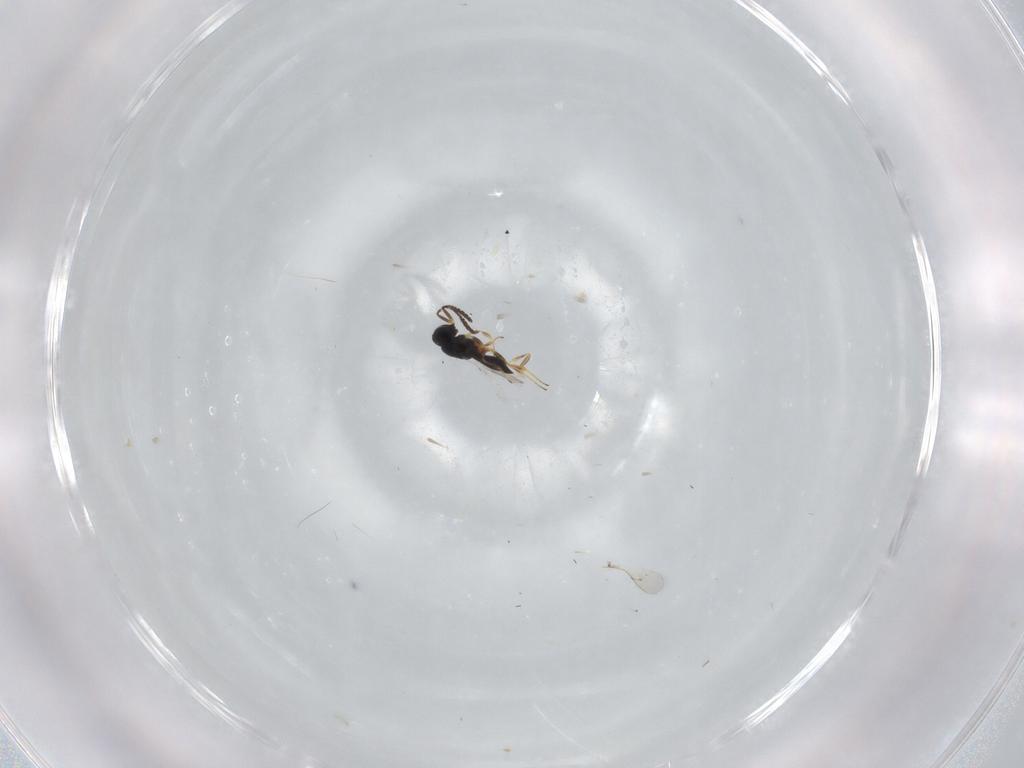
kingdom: Animalia
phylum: Arthropoda
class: Insecta
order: Hymenoptera
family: Scelionidae
